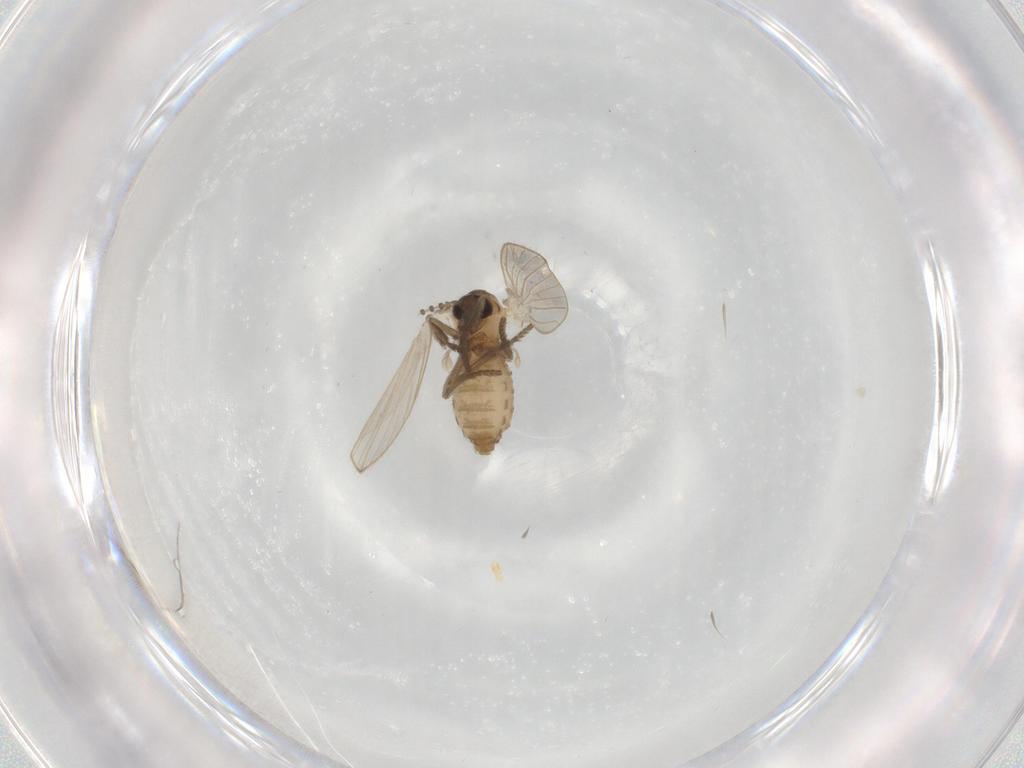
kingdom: Animalia
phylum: Arthropoda
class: Insecta
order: Diptera
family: Psychodidae
